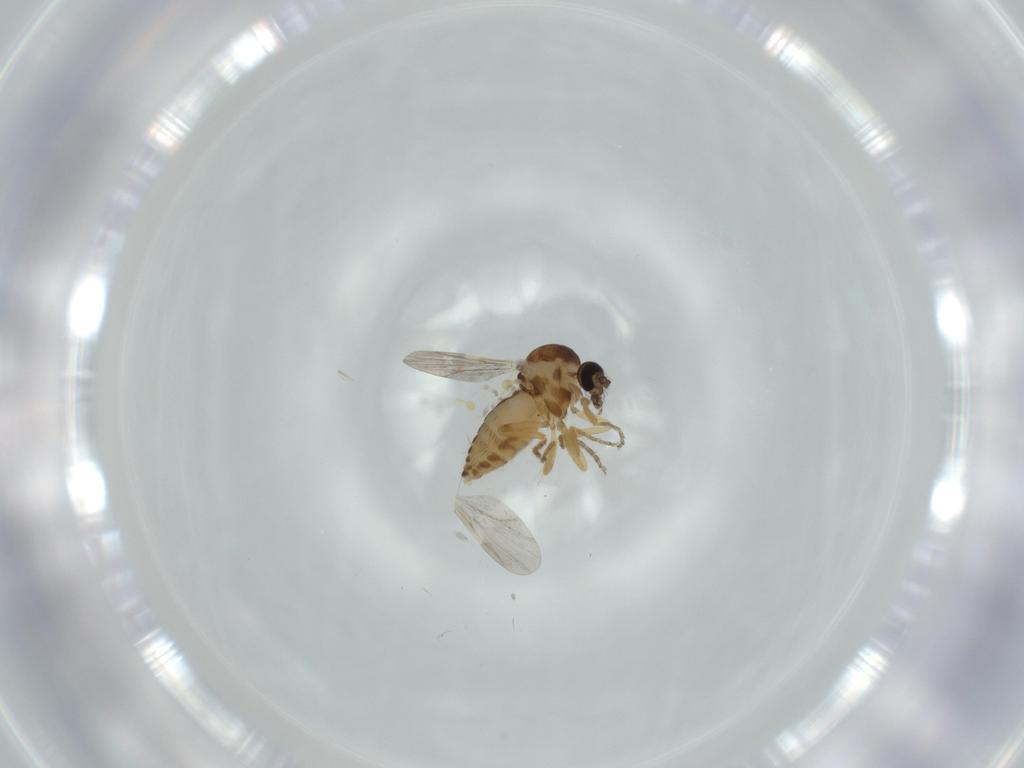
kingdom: Animalia
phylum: Arthropoda
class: Insecta
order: Diptera
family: Ceratopogonidae
